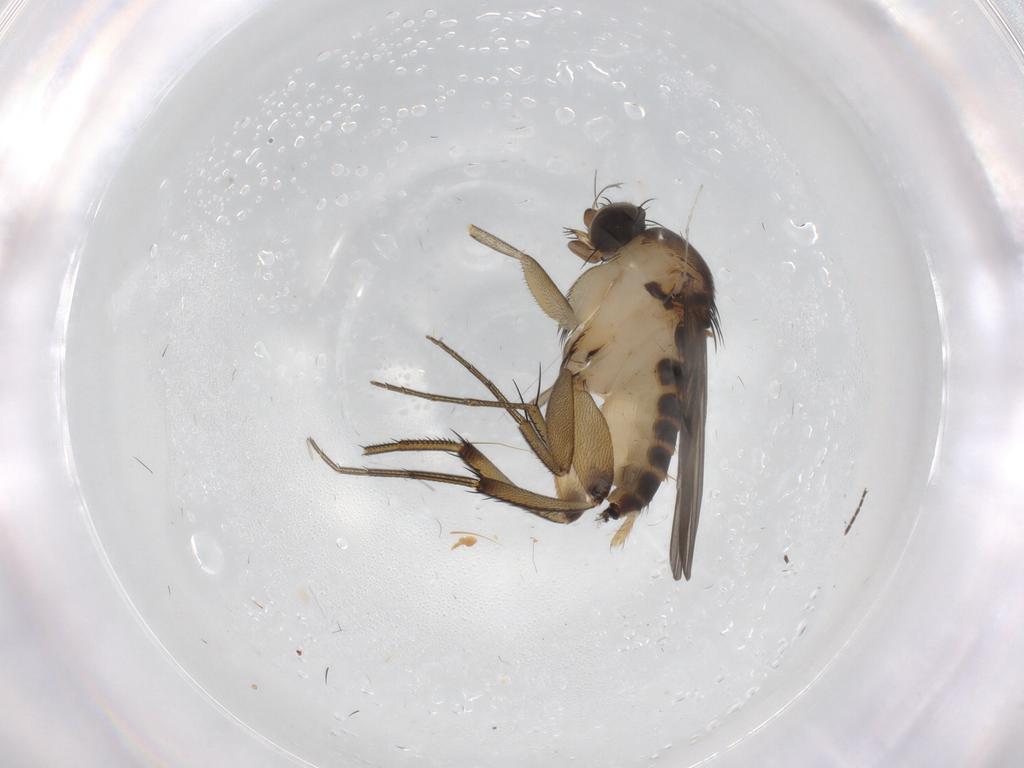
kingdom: Animalia
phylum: Arthropoda
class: Insecta
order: Diptera
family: Phoridae
